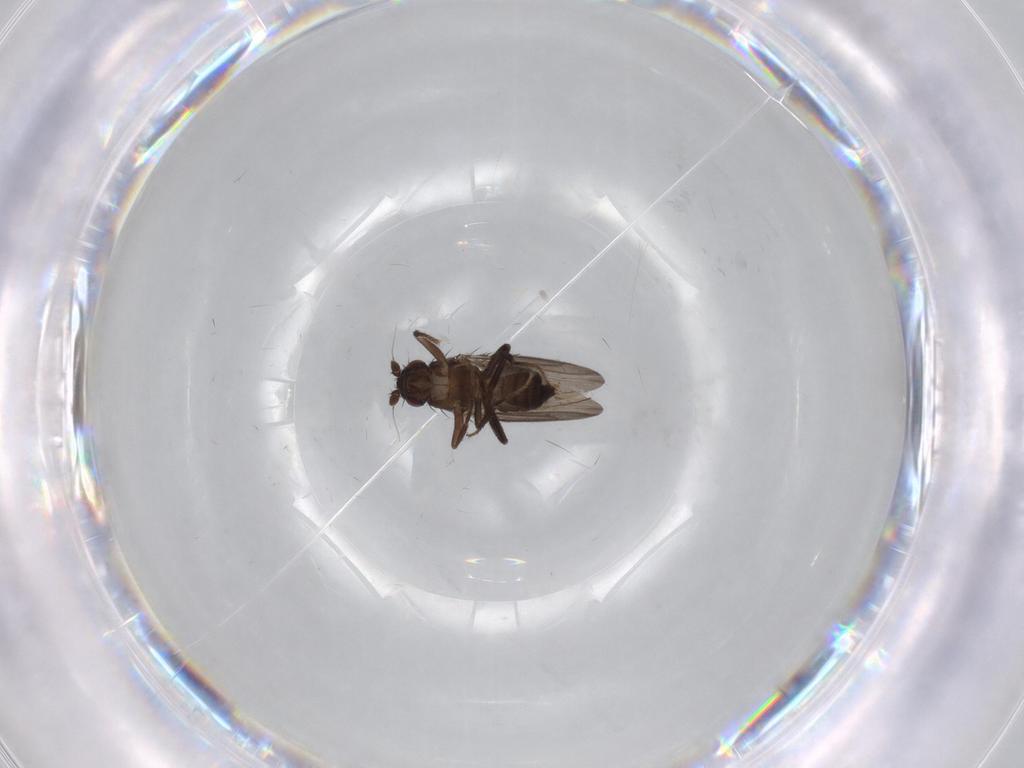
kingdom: Animalia
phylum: Arthropoda
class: Insecta
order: Diptera
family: Sphaeroceridae
